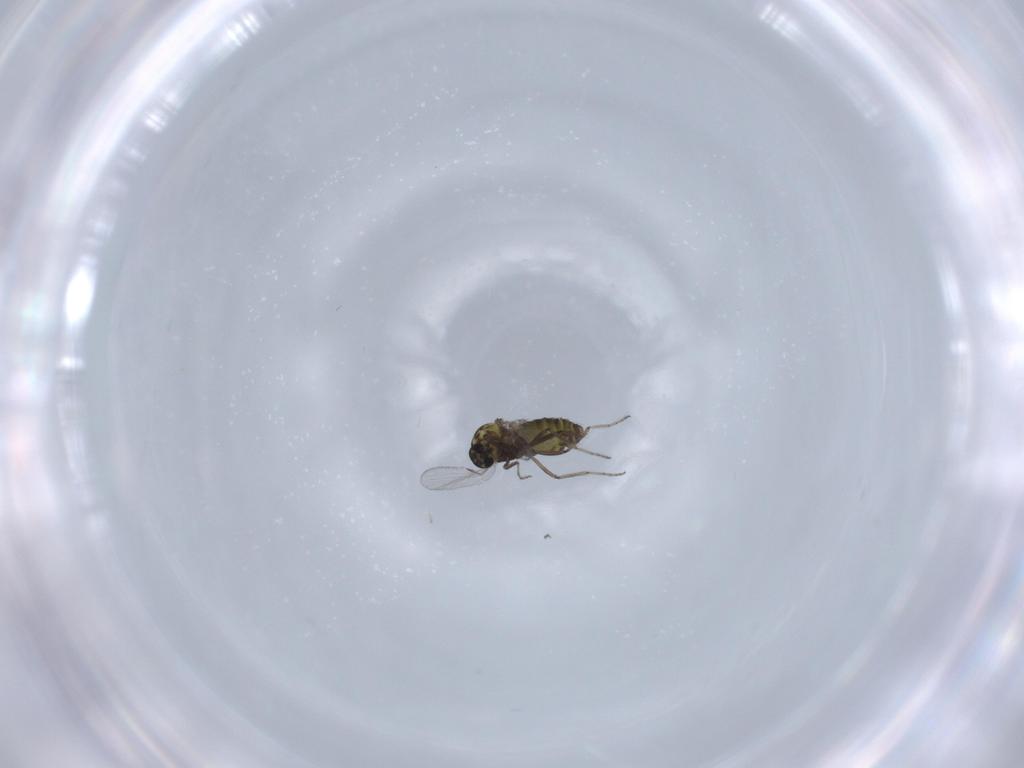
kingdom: Animalia
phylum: Arthropoda
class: Insecta
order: Diptera
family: Ceratopogonidae
